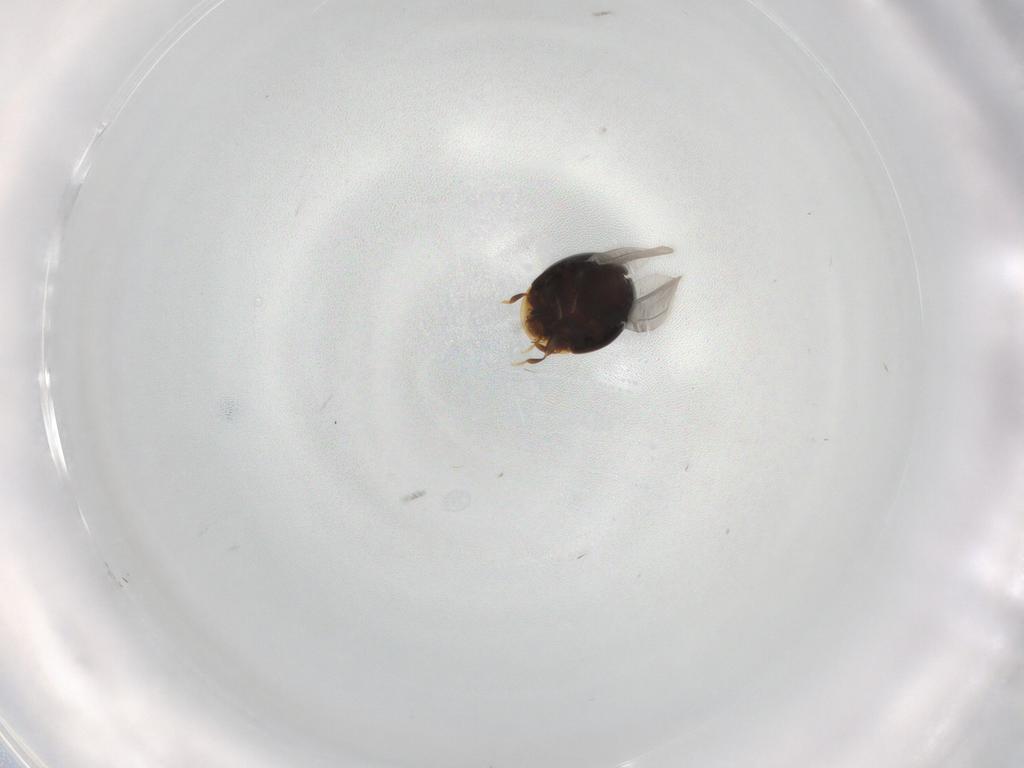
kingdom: Animalia
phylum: Arthropoda
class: Insecta
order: Coleoptera
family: Corylophidae
